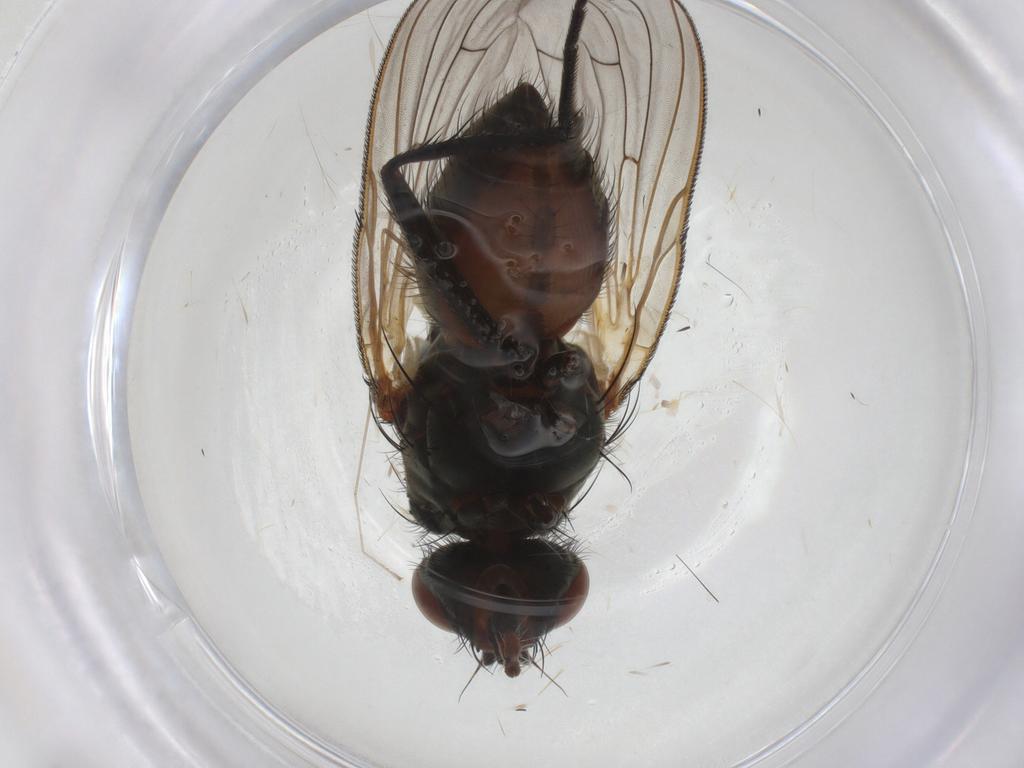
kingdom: Animalia
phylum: Arthropoda
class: Insecta
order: Diptera
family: Cecidomyiidae
